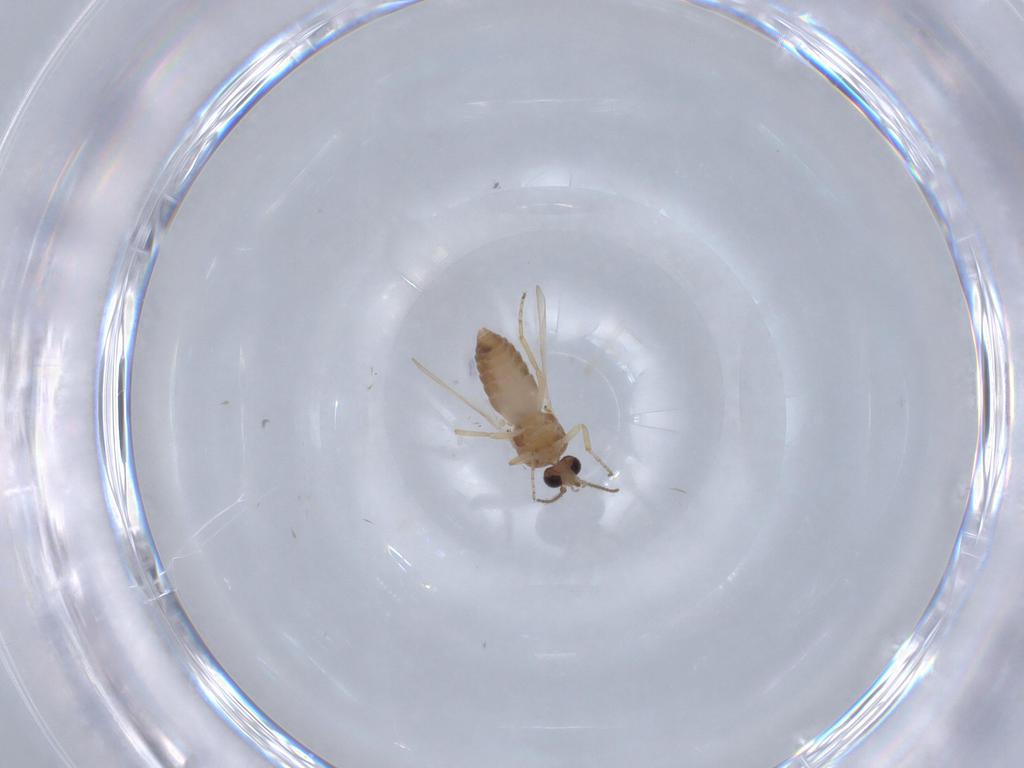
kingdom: Animalia
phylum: Arthropoda
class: Insecta
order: Diptera
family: Ceratopogonidae
